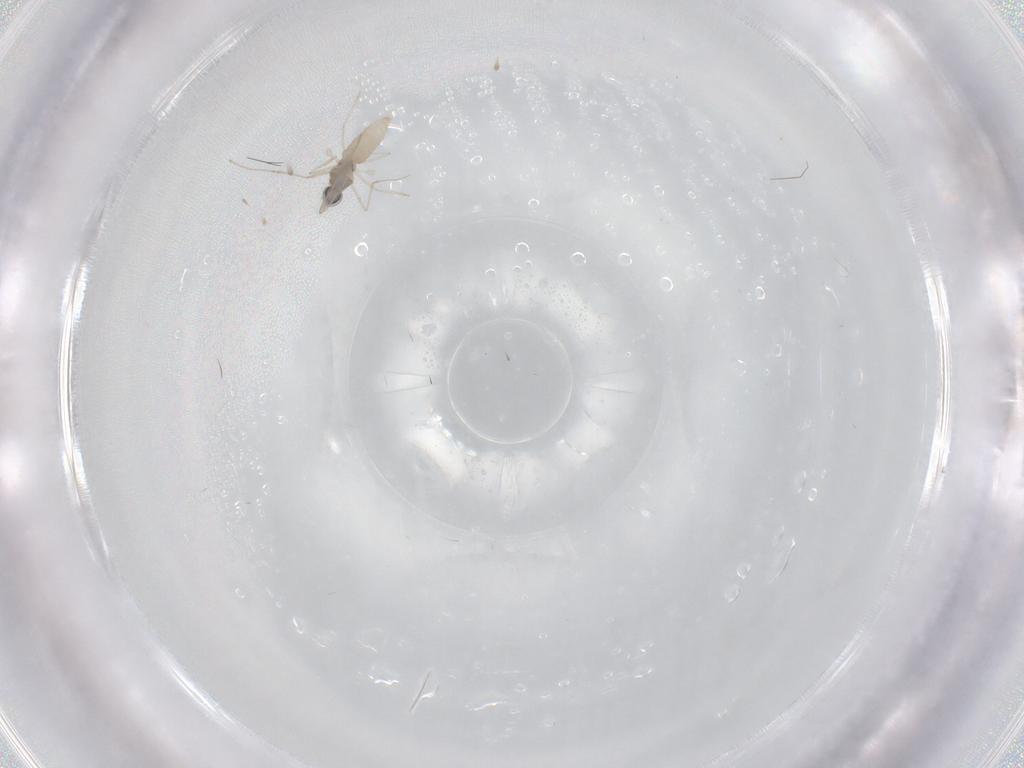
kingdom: Animalia
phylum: Arthropoda
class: Insecta
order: Diptera
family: Cecidomyiidae
